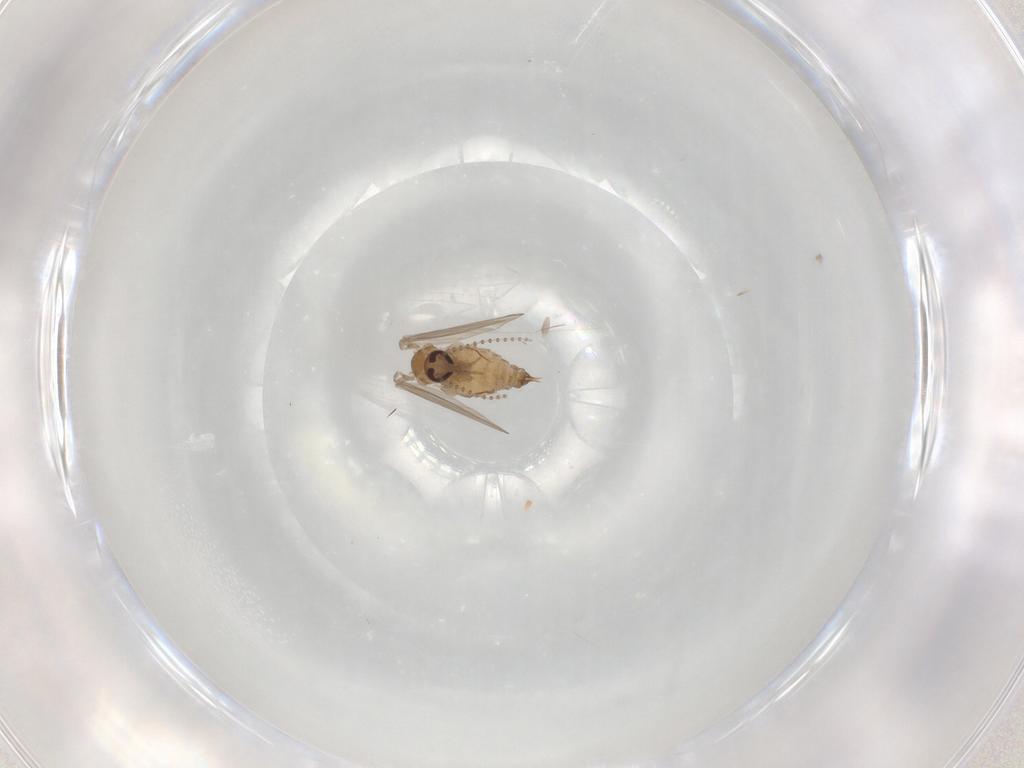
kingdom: Animalia
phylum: Arthropoda
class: Insecta
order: Diptera
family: Psychodidae
